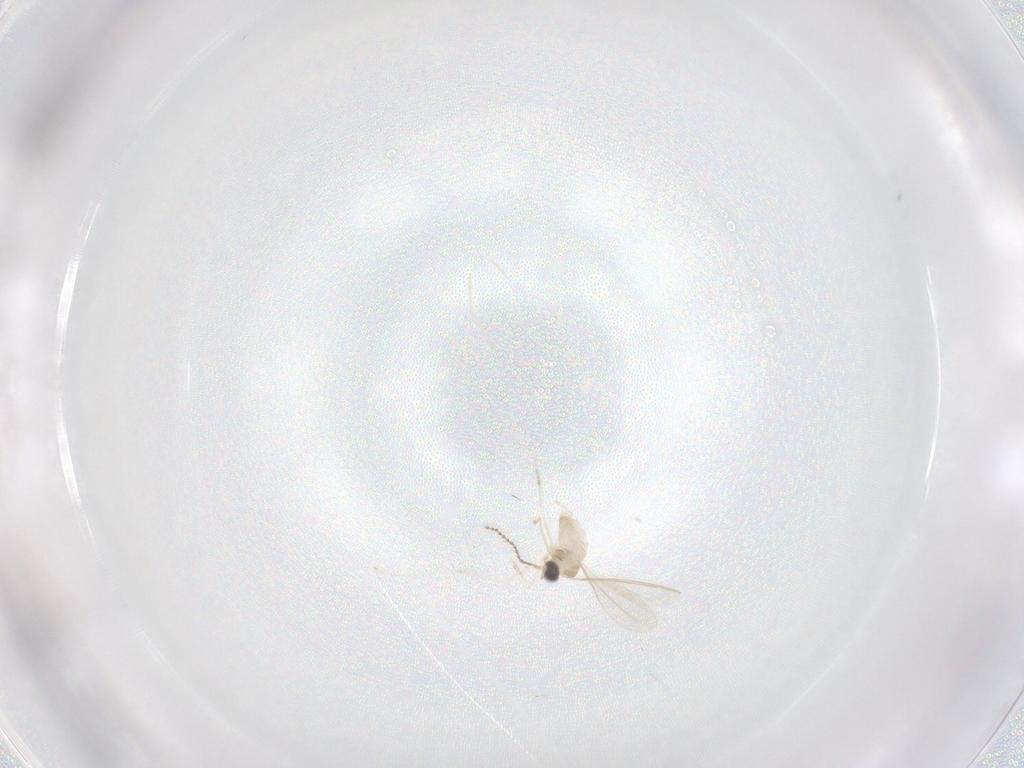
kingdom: Animalia
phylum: Arthropoda
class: Insecta
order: Diptera
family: Cecidomyiidae
